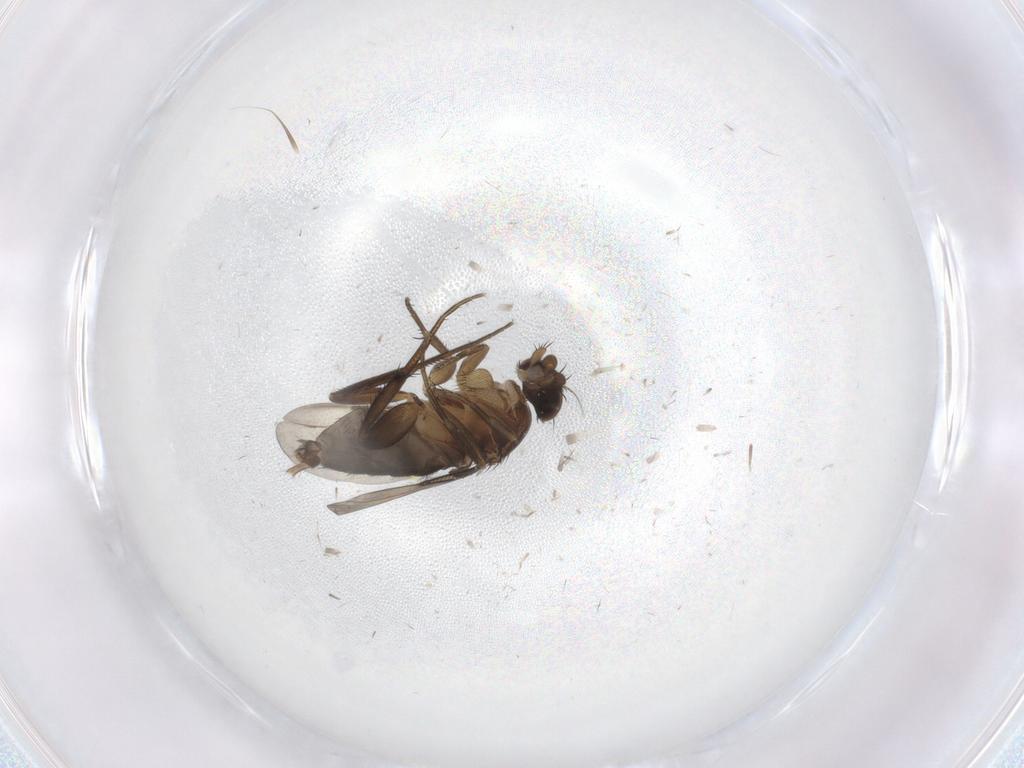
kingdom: Animalia
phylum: Arthropoda
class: Insecta
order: Diptera
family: Phoridae
